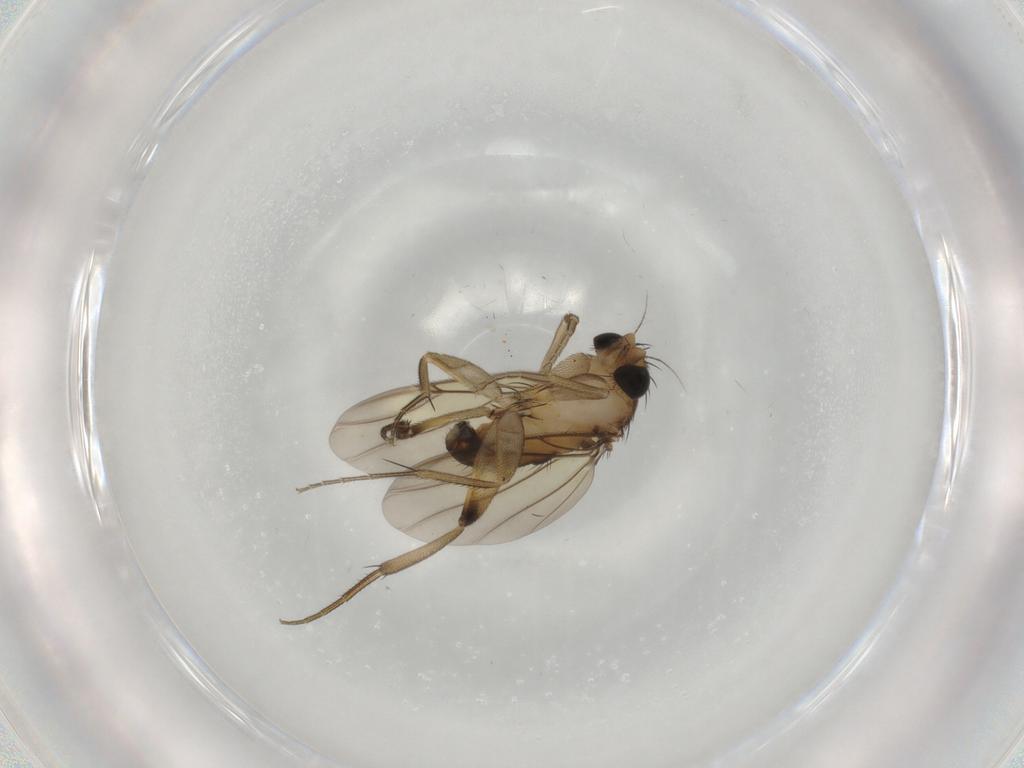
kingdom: Animalia
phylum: Arthropoda
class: Insecta
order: Diptera
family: Phoridae
